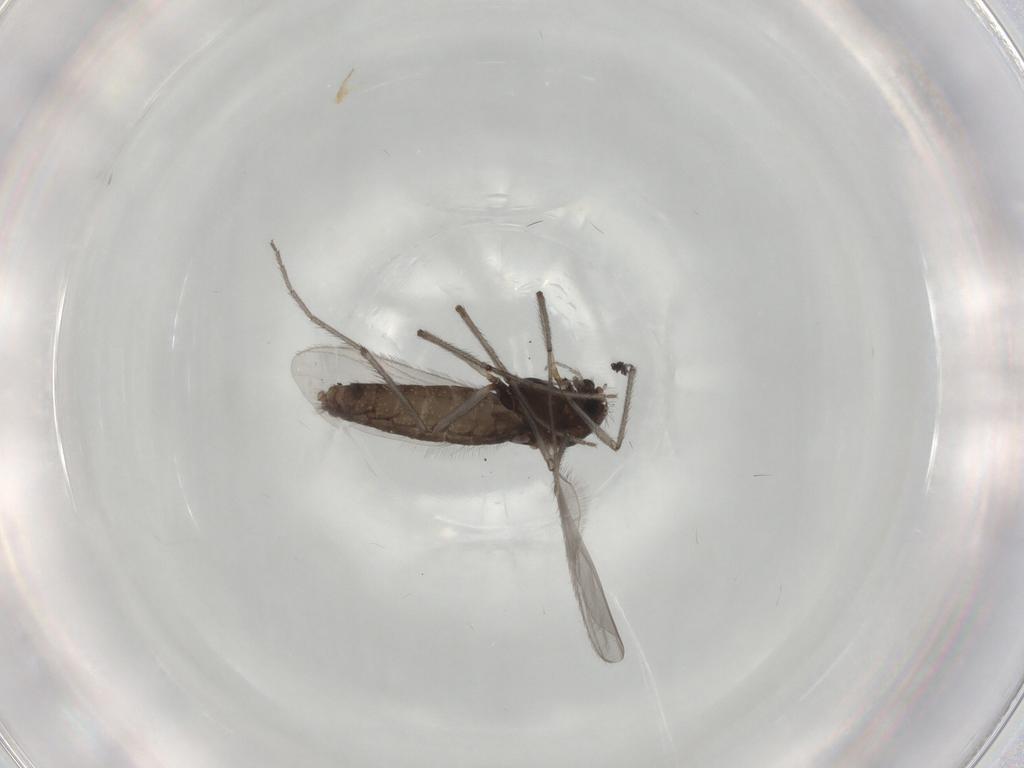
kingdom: Animalia
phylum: Arthropoda
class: Insecta
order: Diptera
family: Chironomidae
